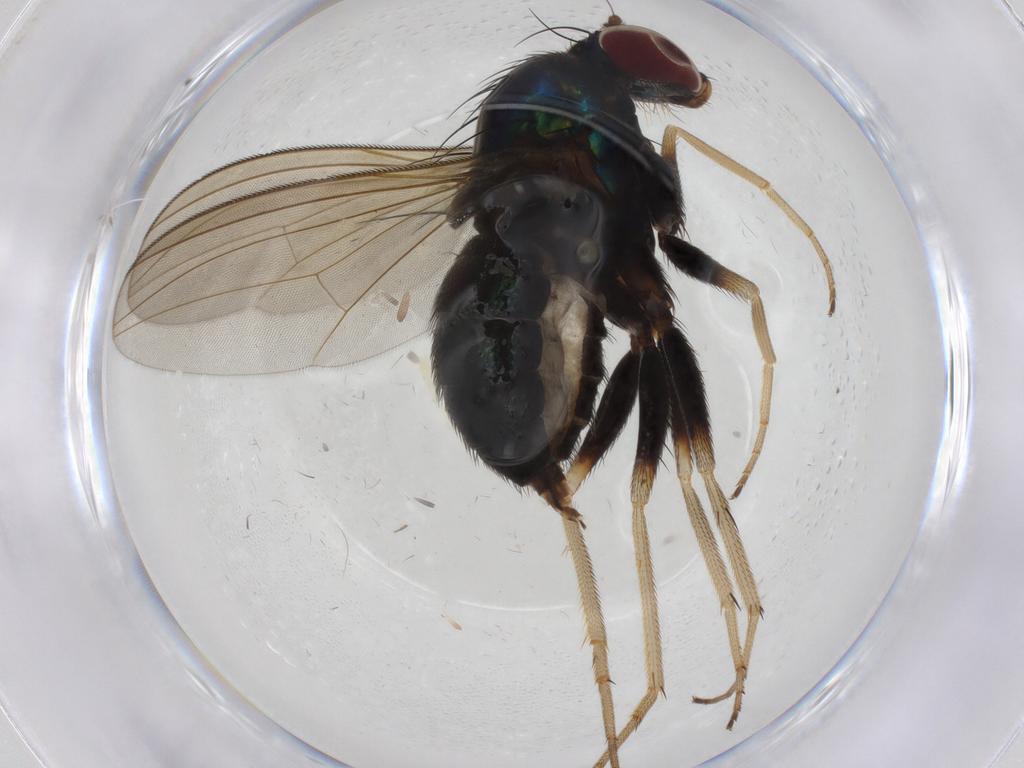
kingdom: Animalia
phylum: Arthropoda
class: Insecta
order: Diptera
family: Dolichopodidae
